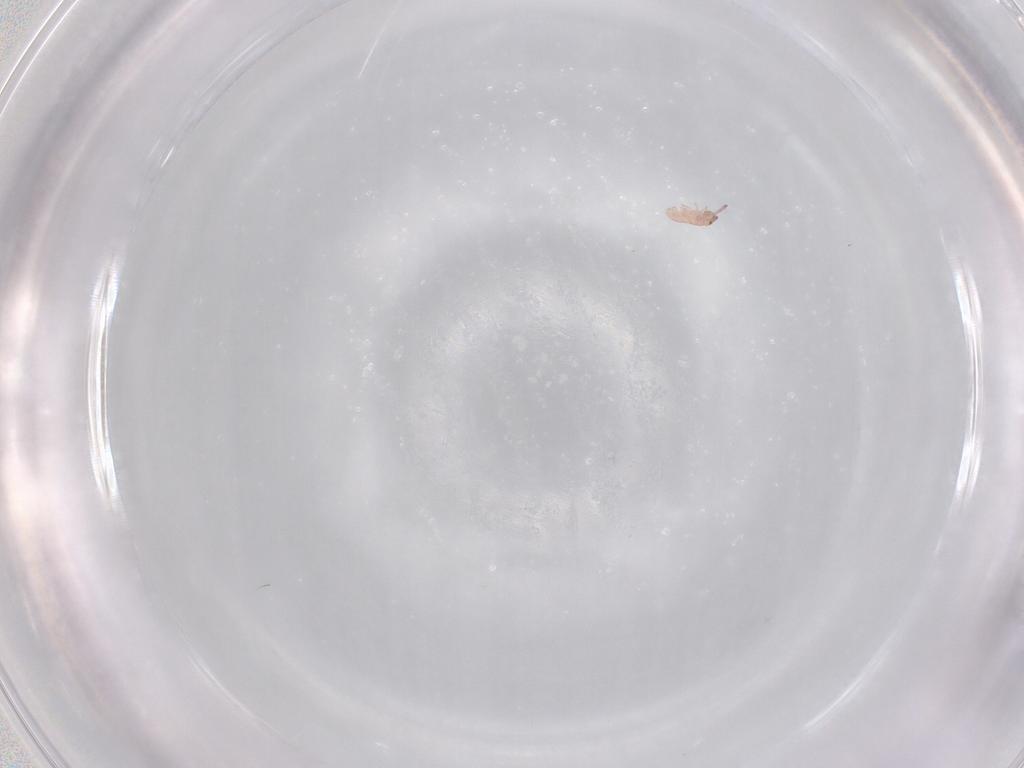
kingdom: Animalia
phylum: Arthropoda
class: Collembola
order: Entomobryomorpha
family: Isotomidae
